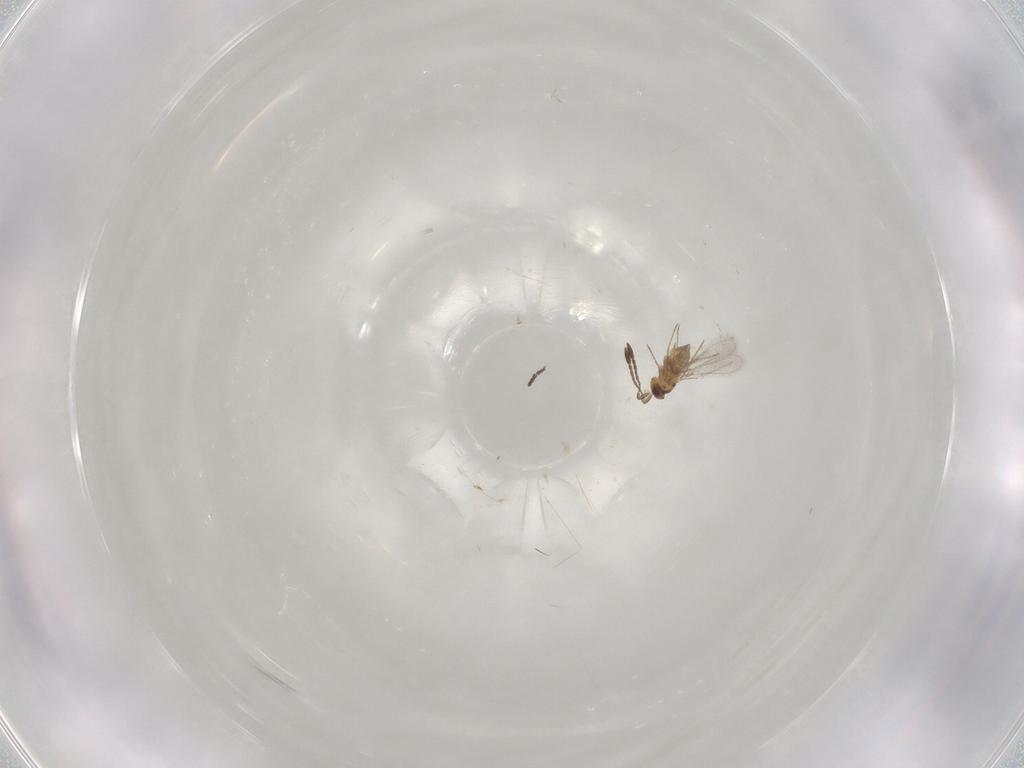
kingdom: Animalia
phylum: Arthropoda
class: Insecta
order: Hymenoptera
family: Scelionidae
